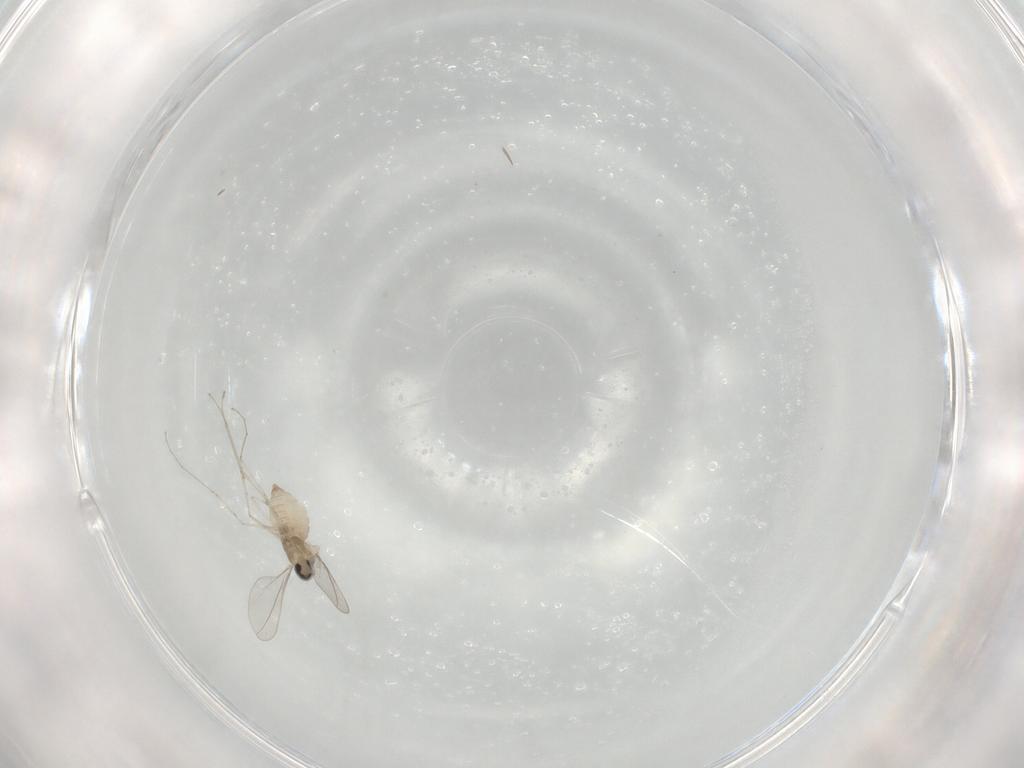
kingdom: Animalia
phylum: Arthropoda
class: Insecta
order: Diptera
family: Cecidomyiidae
